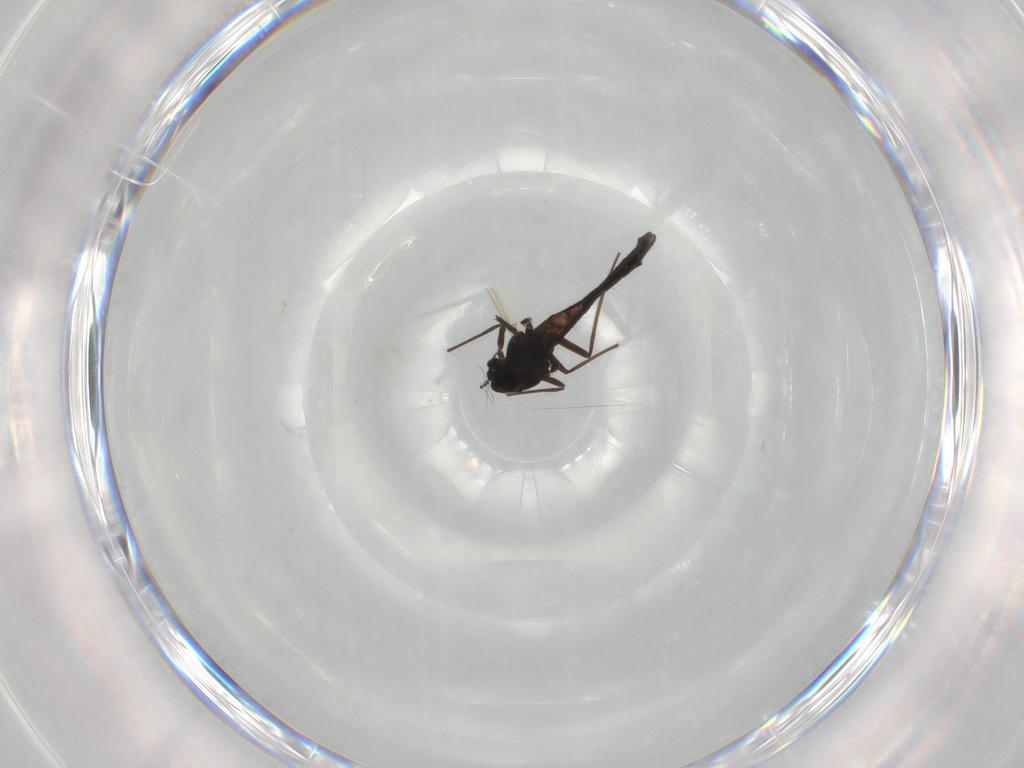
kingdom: Animalia
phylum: Arthropoda
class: Insecta
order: Diptera
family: Chironomidae
